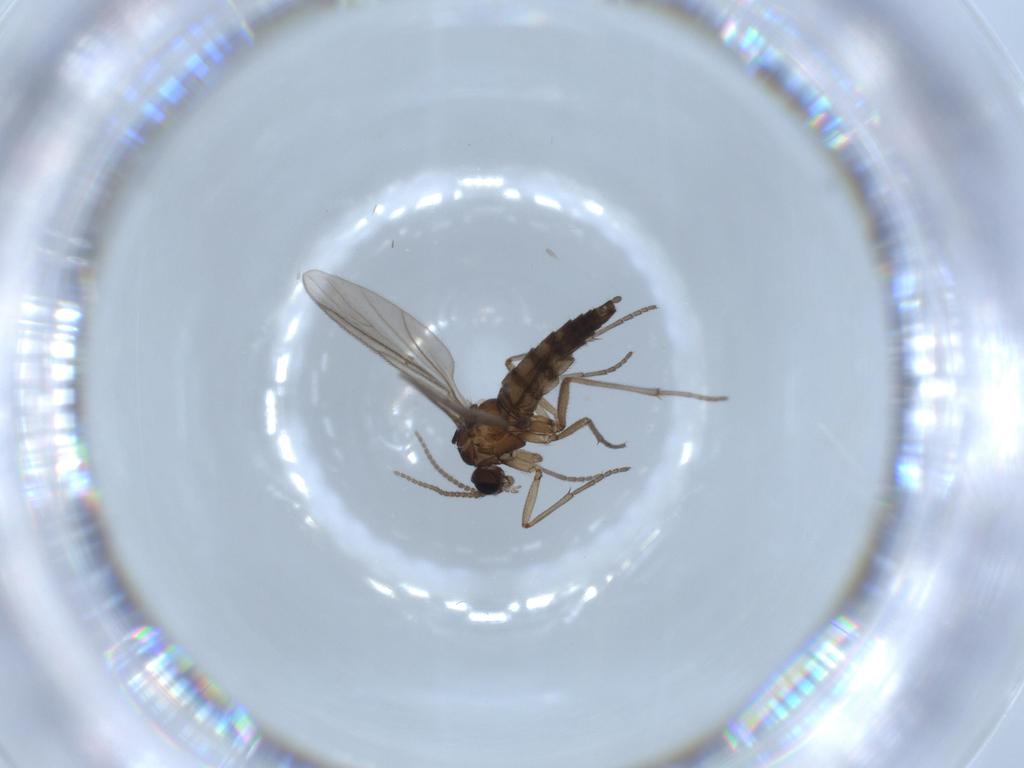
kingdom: Animalia
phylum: Arthropoda
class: Insecta
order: Diptera
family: Sciaridae
